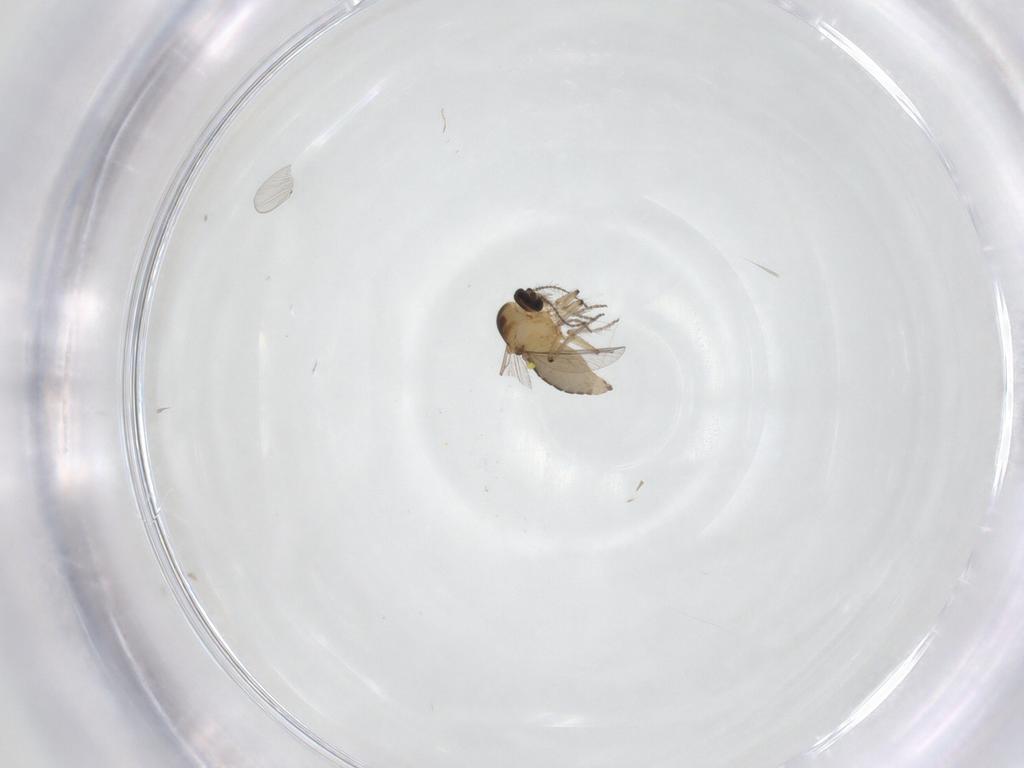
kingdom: Animalia
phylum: Arthropoda
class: Insecta
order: Diptera
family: Chironomidae
